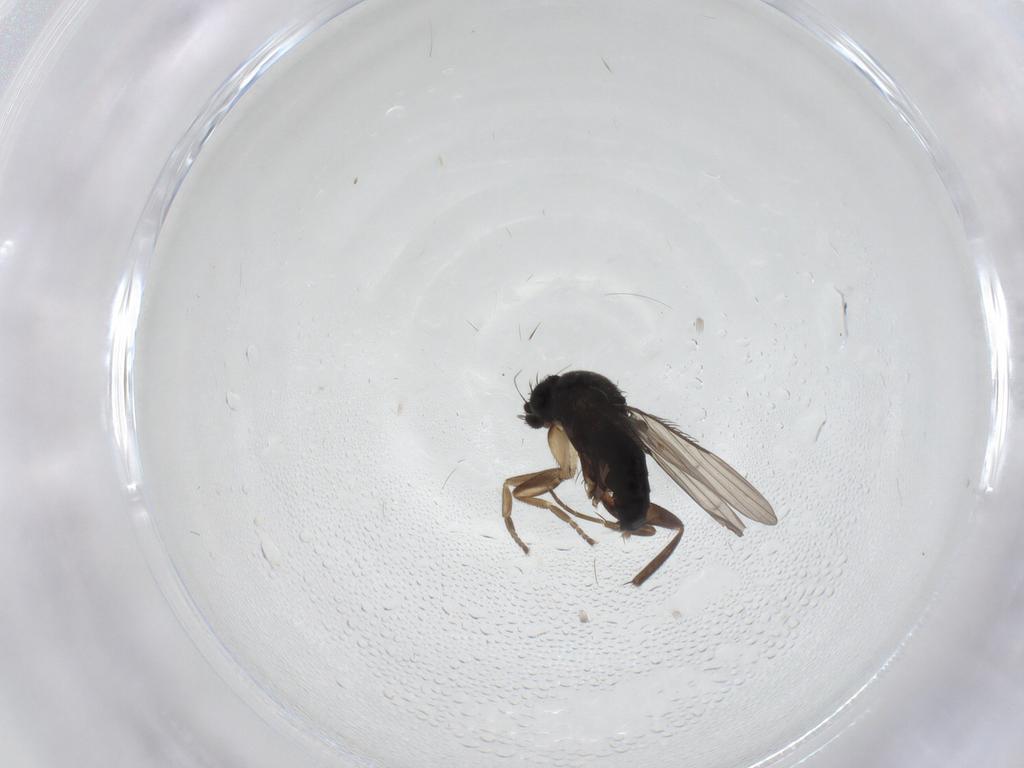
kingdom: Animalia
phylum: Arthropoda
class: Insecta
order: Diptera
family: Phoridae
